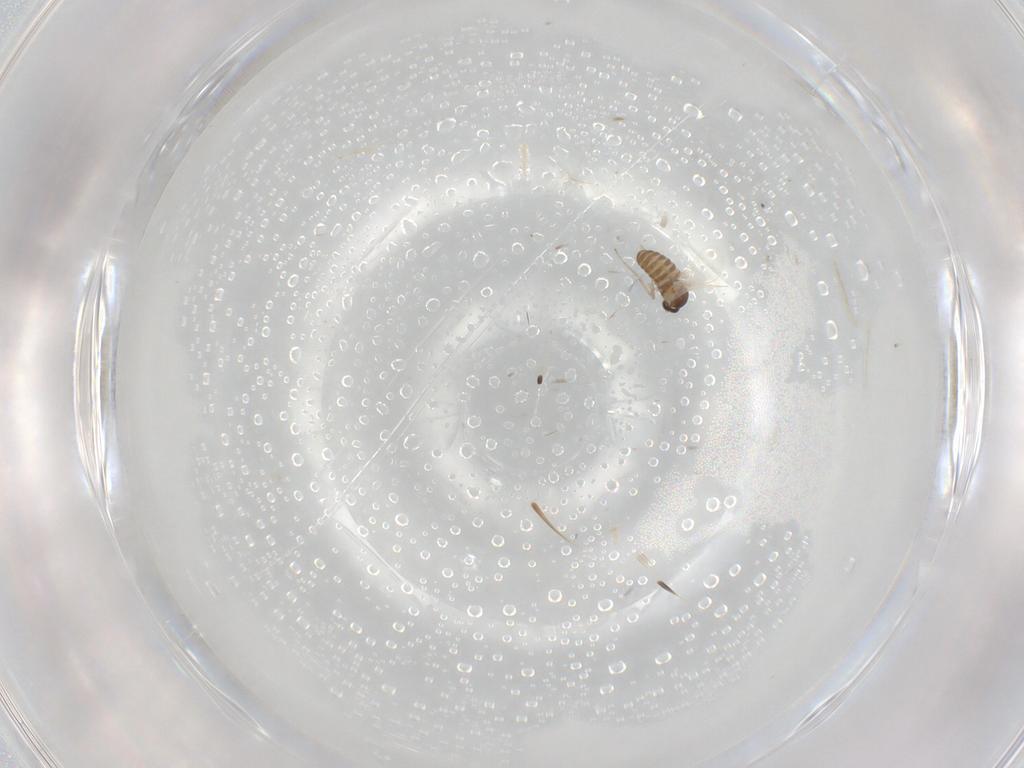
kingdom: Animalia
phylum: Arthropoda
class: Insecta
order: Diptera
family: Cecidomyiidae
